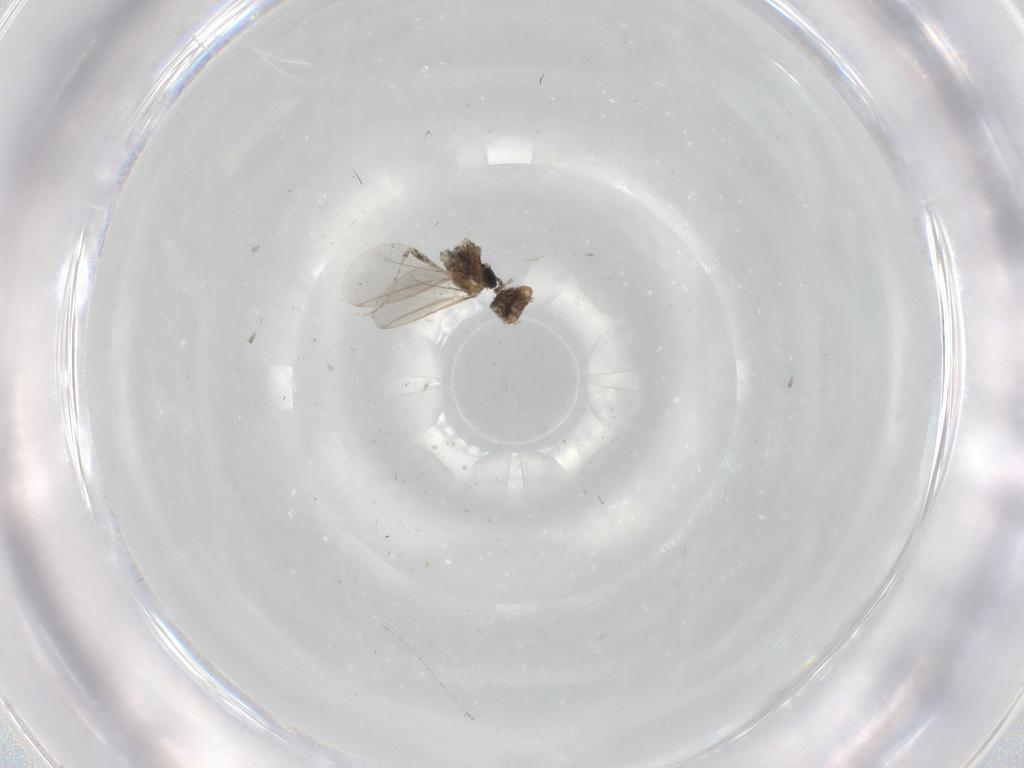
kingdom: Animalia
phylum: Arthropoda
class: Insecta
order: Diptera
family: Cecidomyiidae
